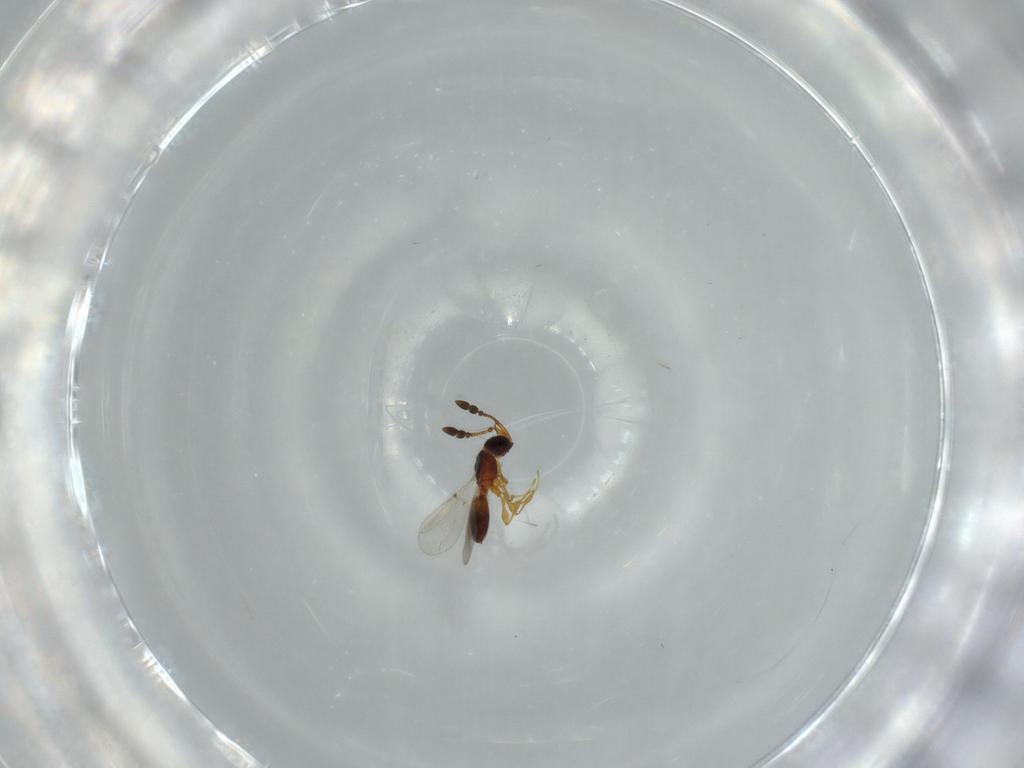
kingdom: Animalia
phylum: Arthropoda
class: Insecta
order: Hymenoptera
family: Diapriidae
